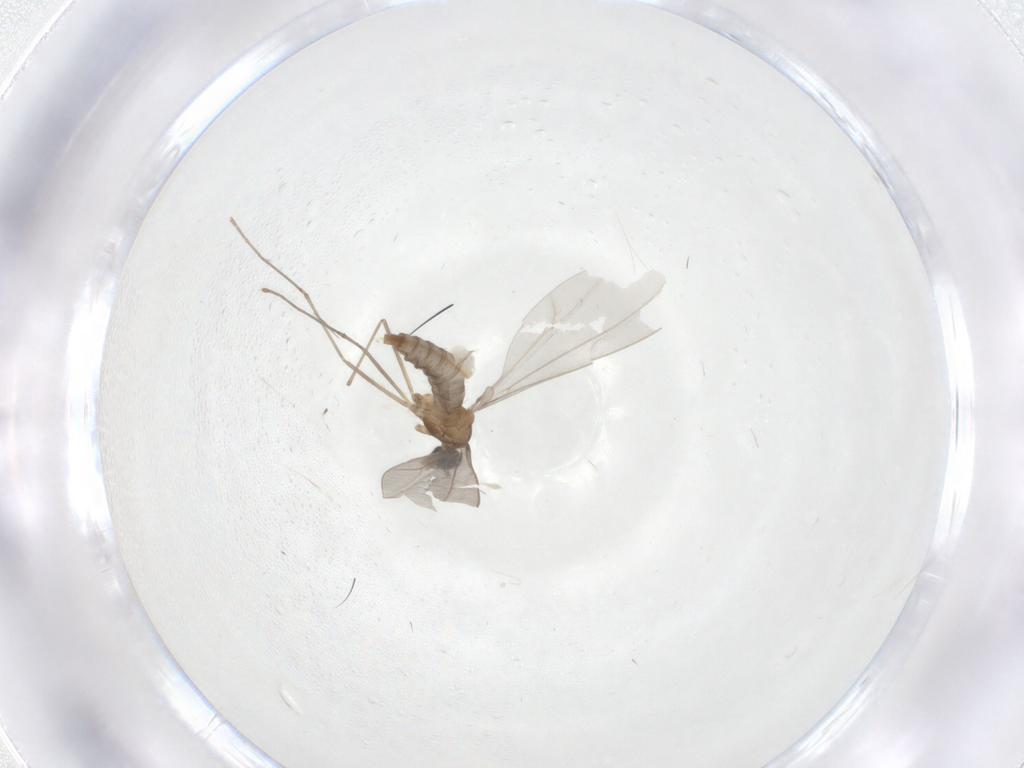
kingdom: Animalia
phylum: Arthropoda
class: Insecta
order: Diptera
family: Cecidomyiidae
